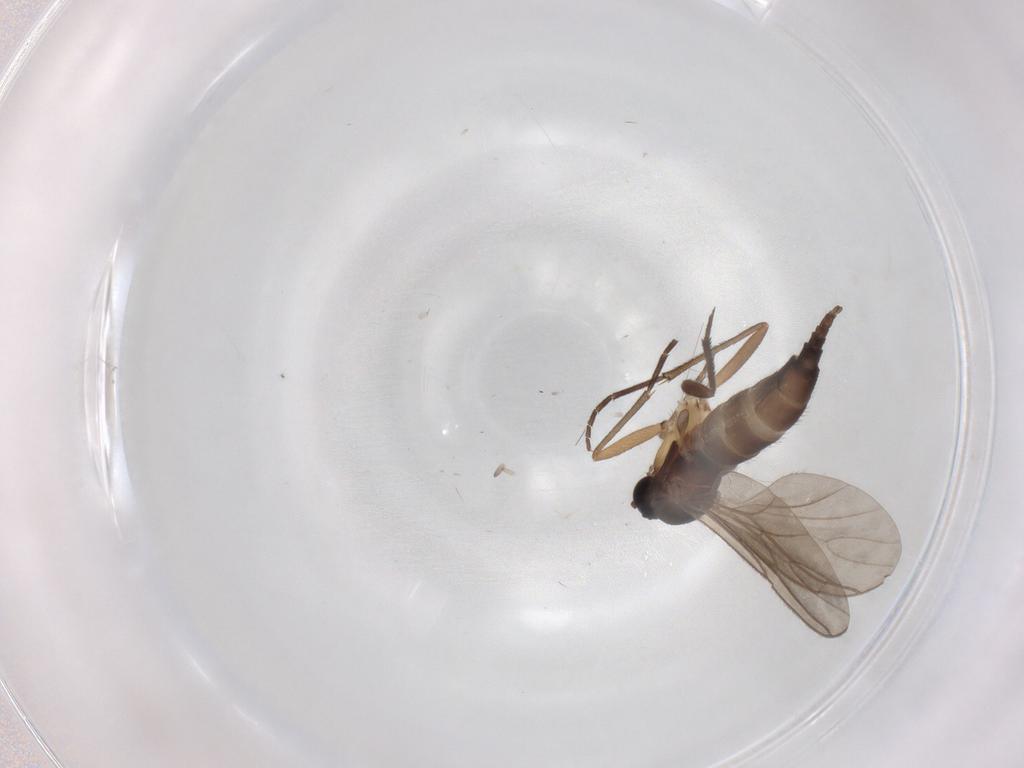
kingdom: Animalia
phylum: Arthropoda
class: Insecta
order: Diptera
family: Sciaridae
